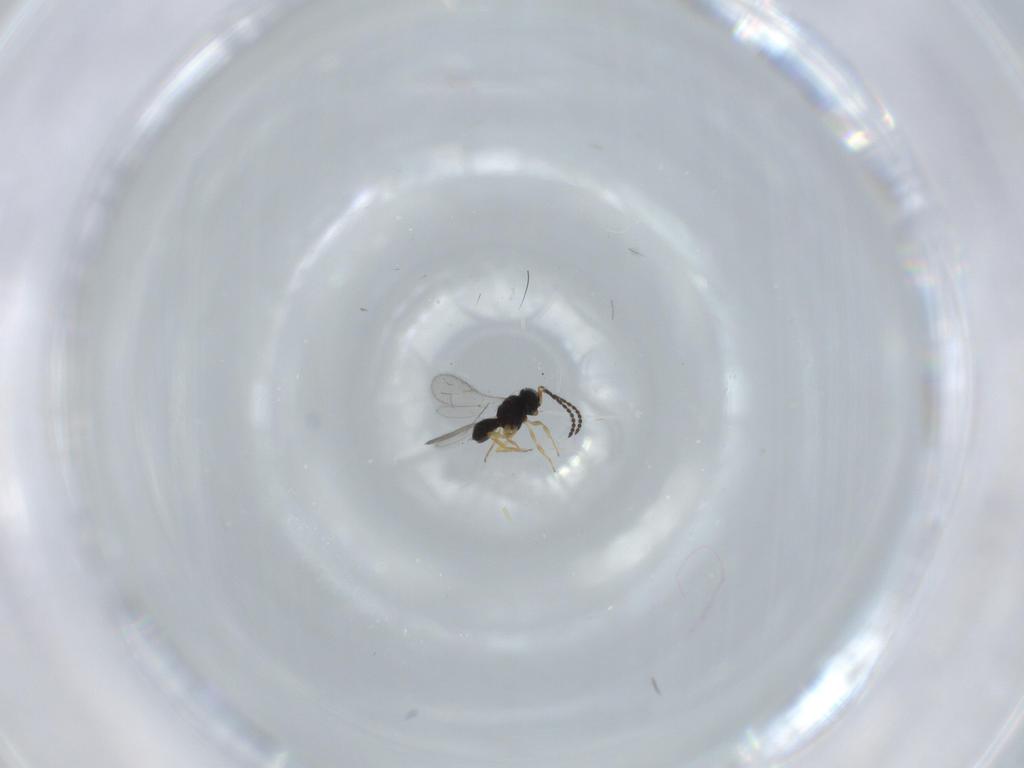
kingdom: Animalia
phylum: Arthropoda
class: Insecta
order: Hymenoptera
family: Scelionidae
